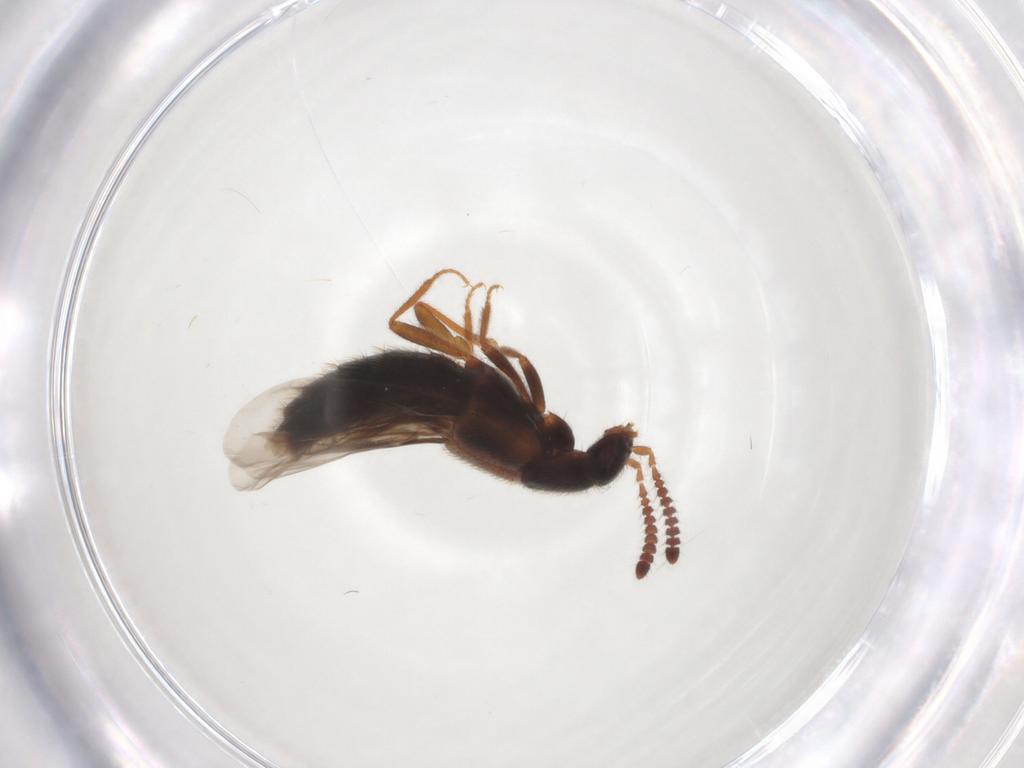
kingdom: Animalia
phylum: Arthropoda
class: Insecta
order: Coleoptera
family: Staphylinidae
